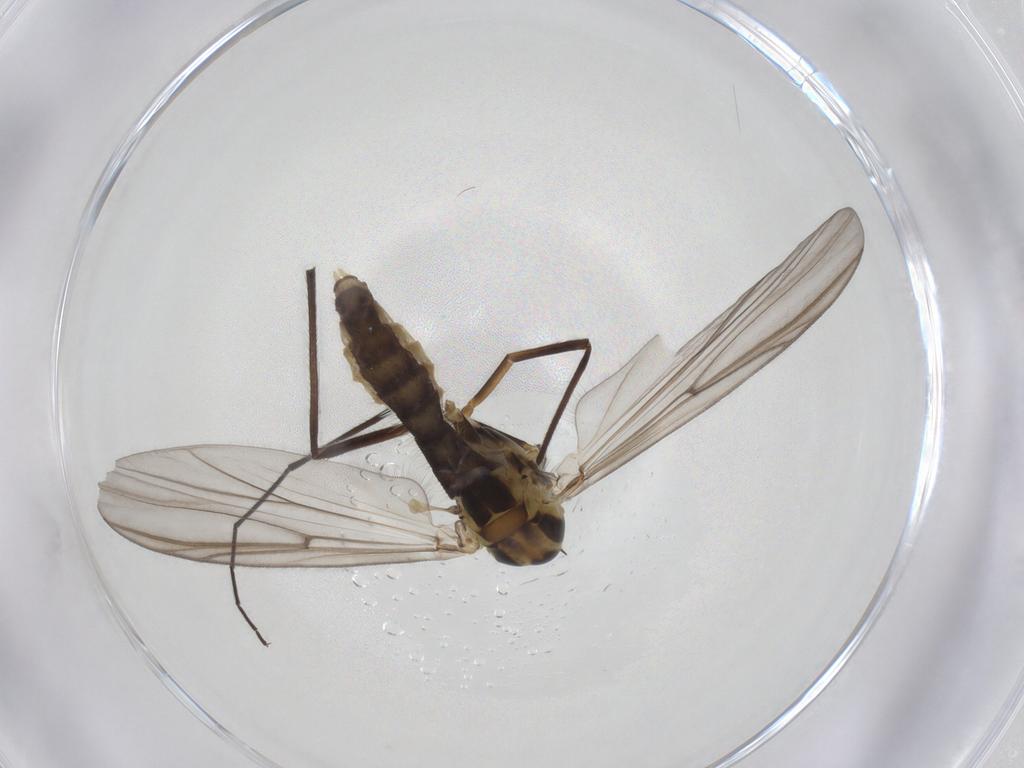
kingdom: Animalia
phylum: Arthropoda
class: Insecta
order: Diptera
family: Chironomidae
